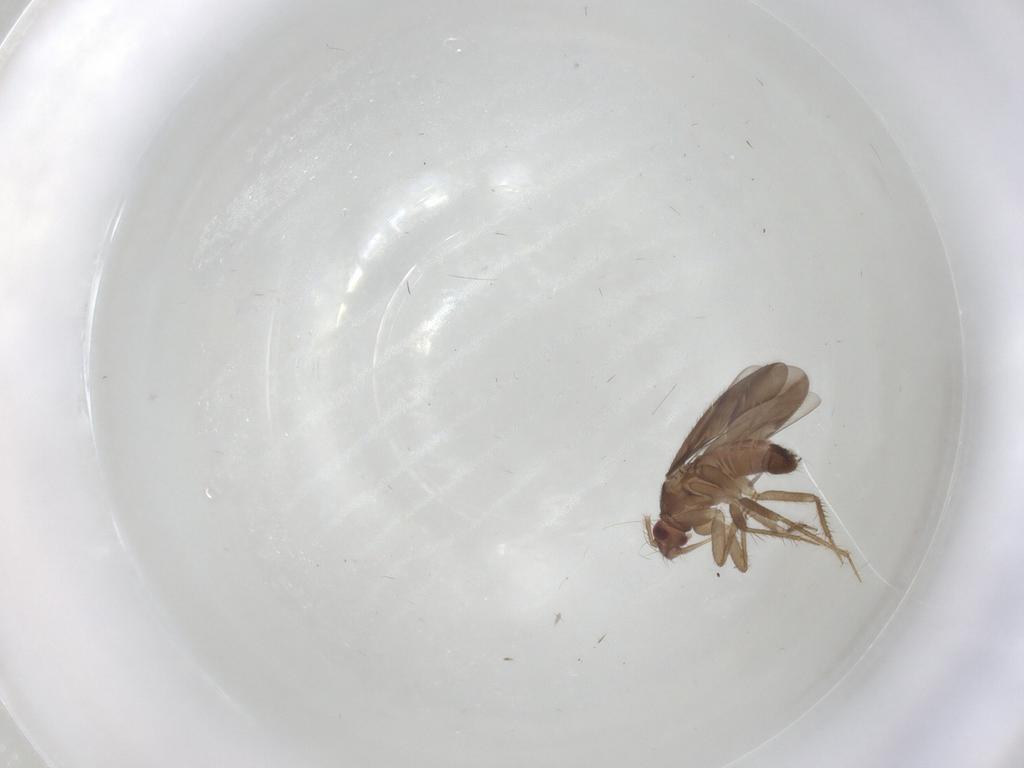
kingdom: Animalia
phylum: Arthropoda
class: Insecta
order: Hemiptera
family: Ceratocombidae
